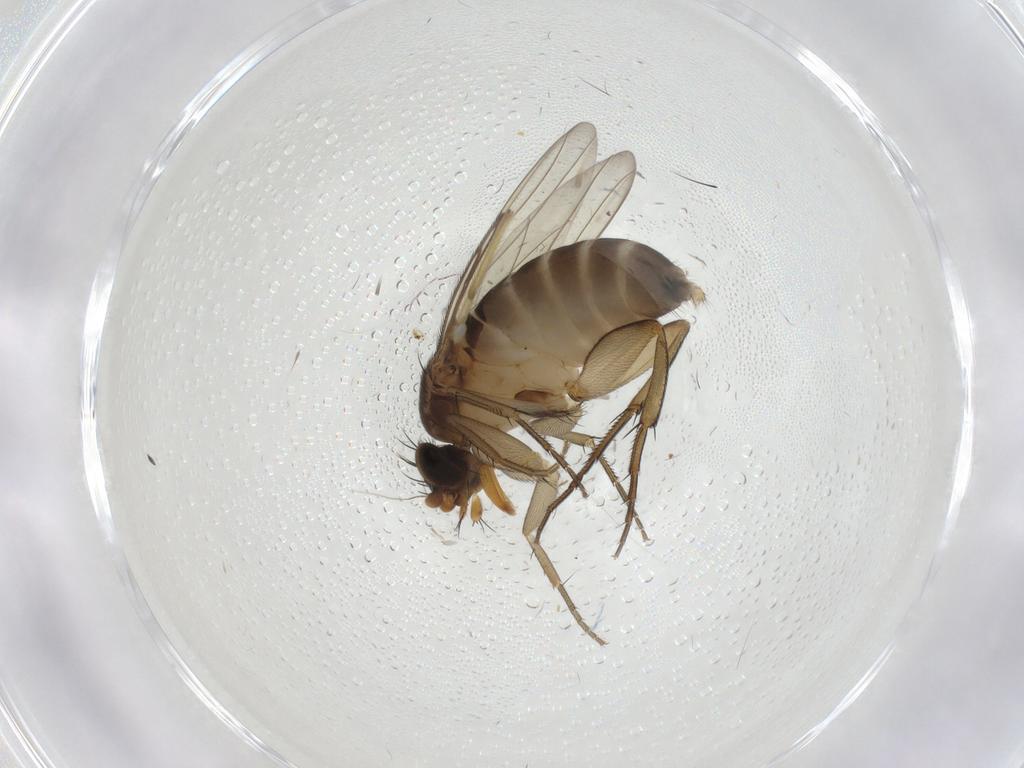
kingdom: Animalia
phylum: Arthropoda
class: Insecta
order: Diptera
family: Phoridae
